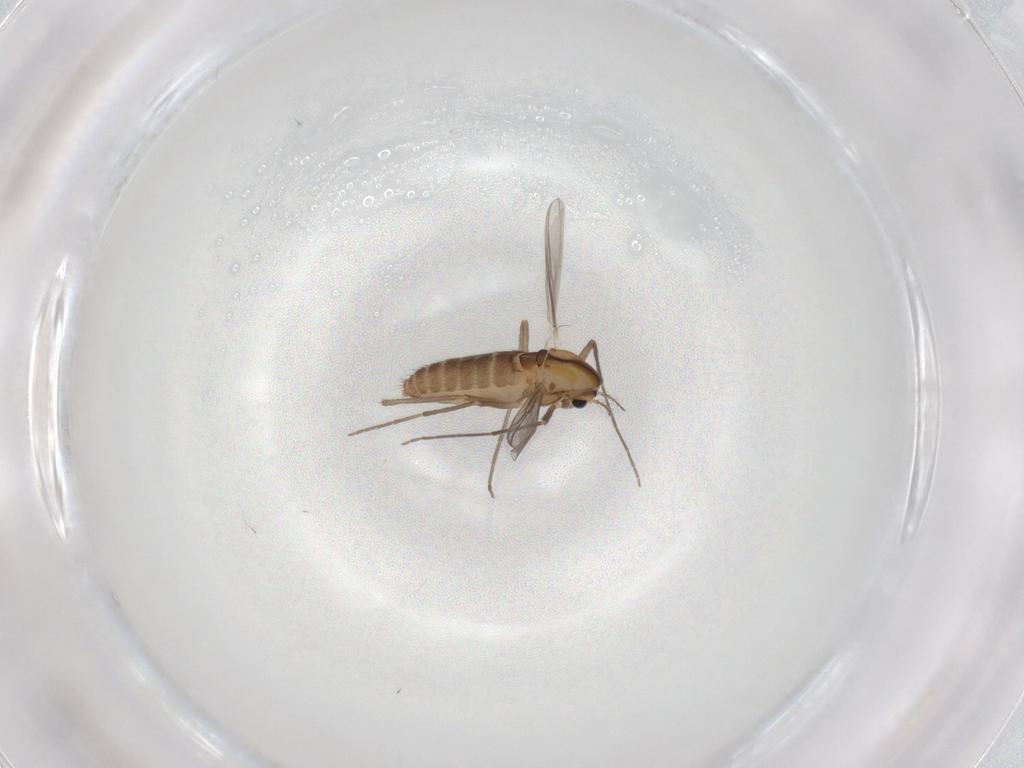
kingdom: Animalia
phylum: Arthropoda
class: Insecta
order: Diptera
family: Chironomidae
